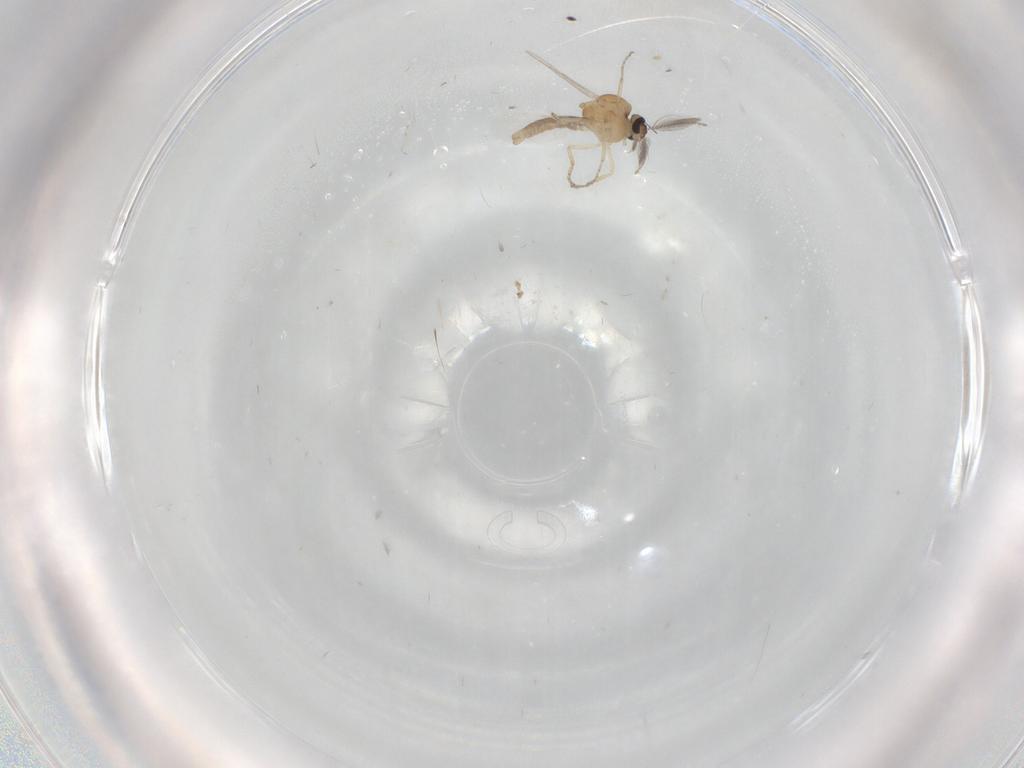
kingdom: Animalia
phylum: Arthropoda
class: Insecta
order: Diptera
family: Ceratopogonidae
